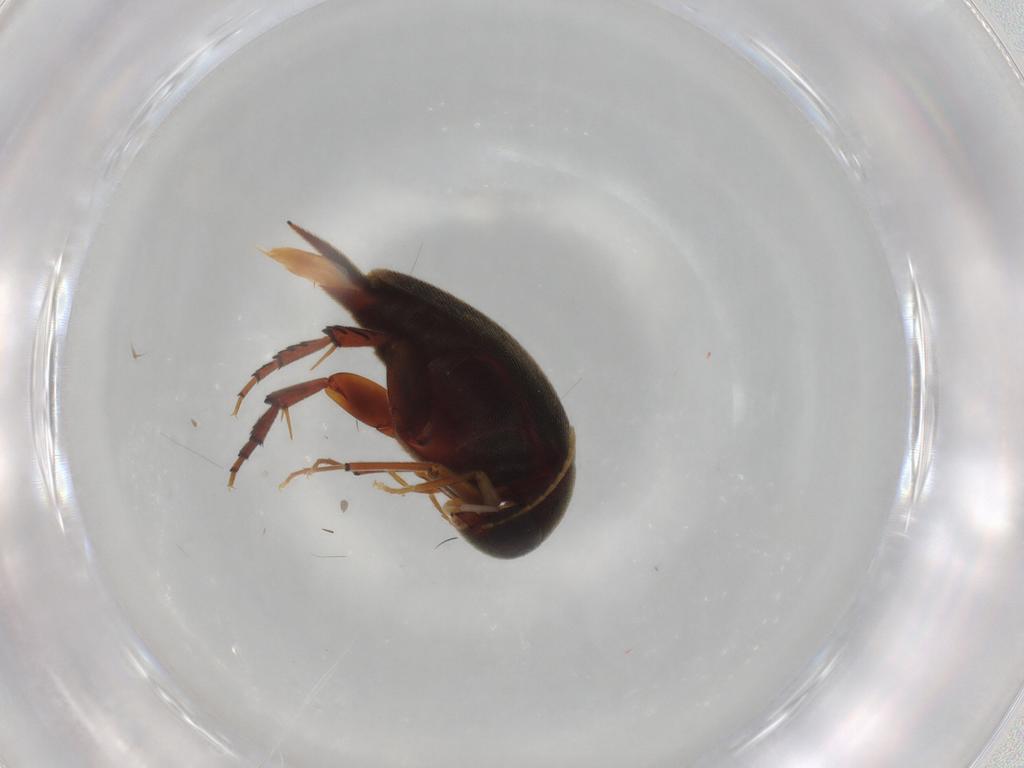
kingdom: Animalia
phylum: Arthropoda
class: Insecta
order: Coleoptera
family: Mordellidae
